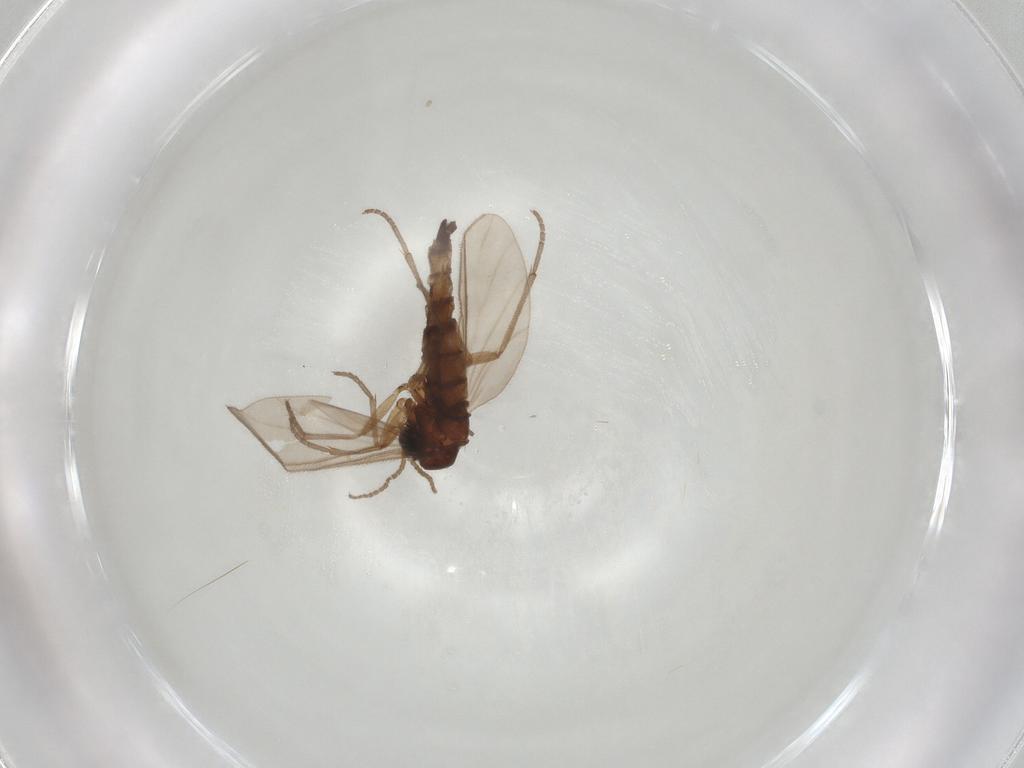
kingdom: Animalia
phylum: Arthropoda
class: Insecta
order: Diptera
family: Sciaridae
